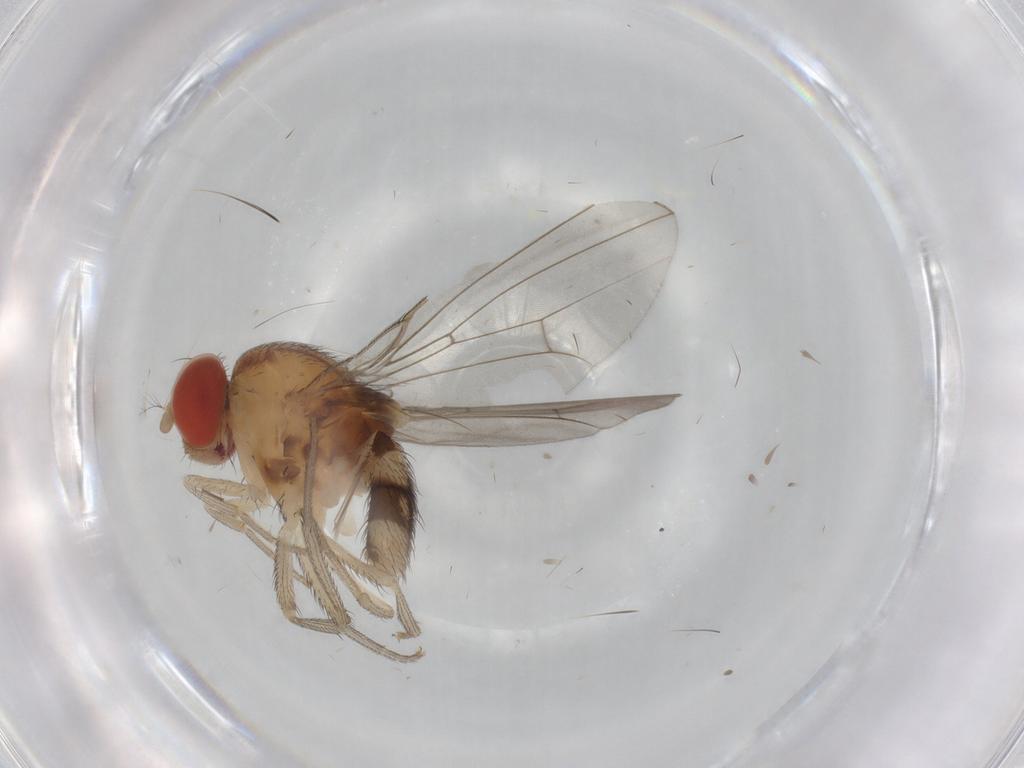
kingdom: Animalia
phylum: Arthropoda
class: Insecta
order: Diptera
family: Drosophilidae
